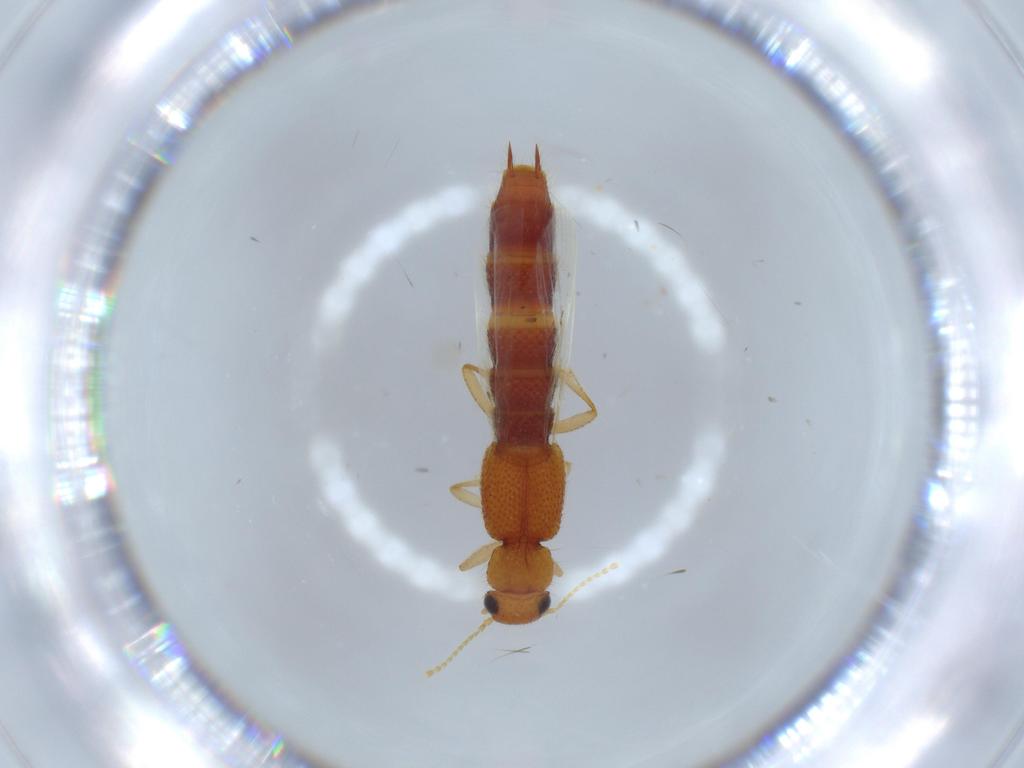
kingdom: Animalia
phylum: Arthropoda
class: Insecta
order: Coleoptera
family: Staphylinidae
